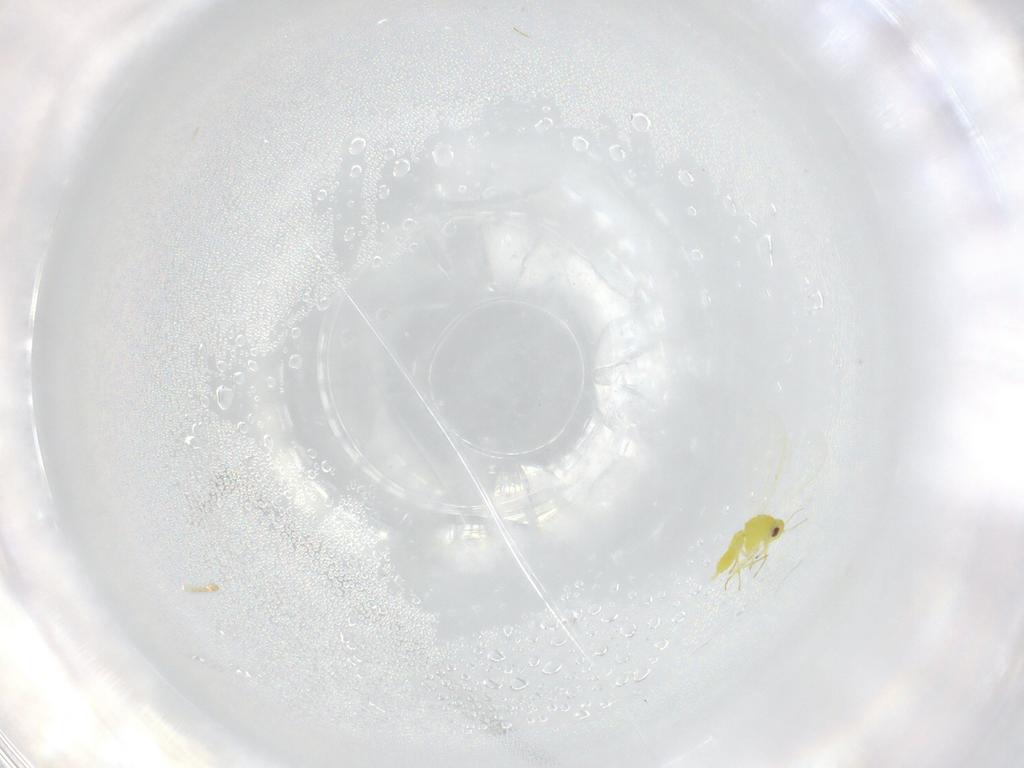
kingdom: Animalia
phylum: Arthropoda
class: Insecta
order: Hemiptera
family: Aleyrodidae
